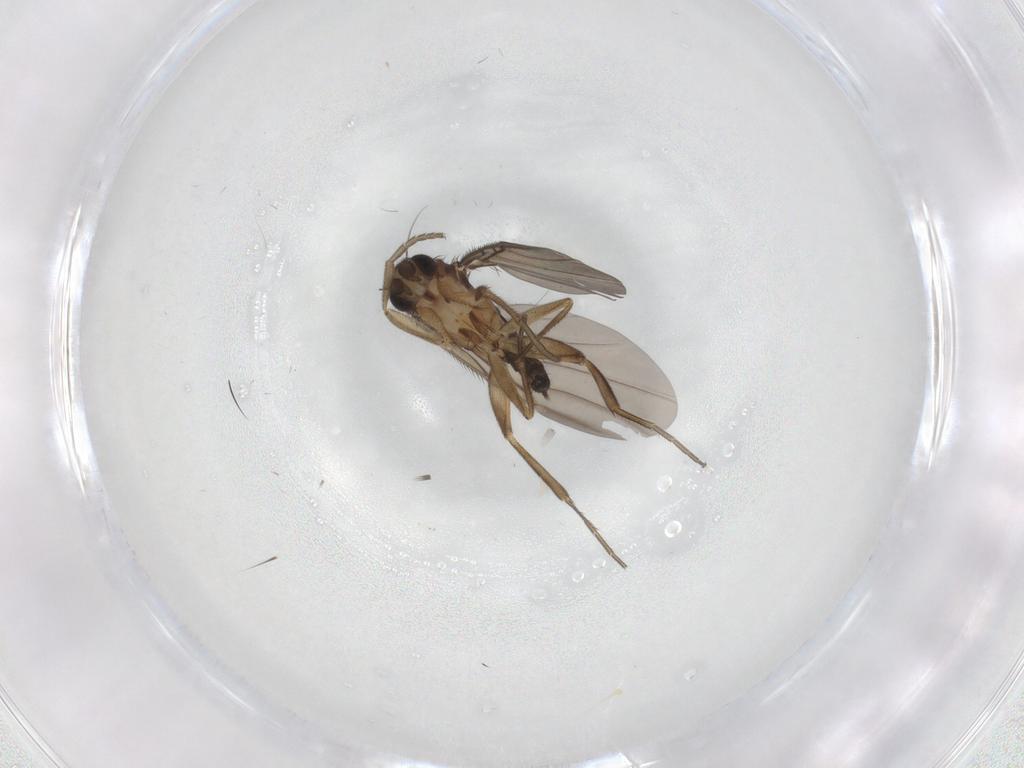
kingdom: Animalia
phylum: Arthropoda
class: Insecta
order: Diptera
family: Phoridae
